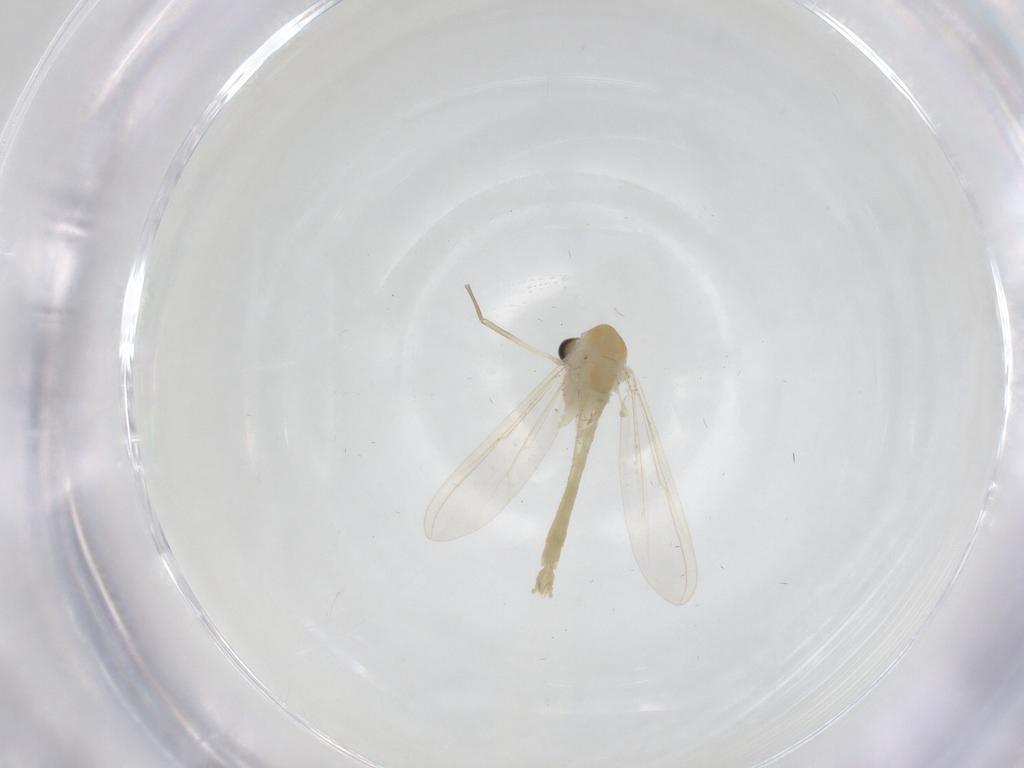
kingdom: Animalia
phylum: Arthropoda
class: Insecta
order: Diptera
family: Chironomidae
